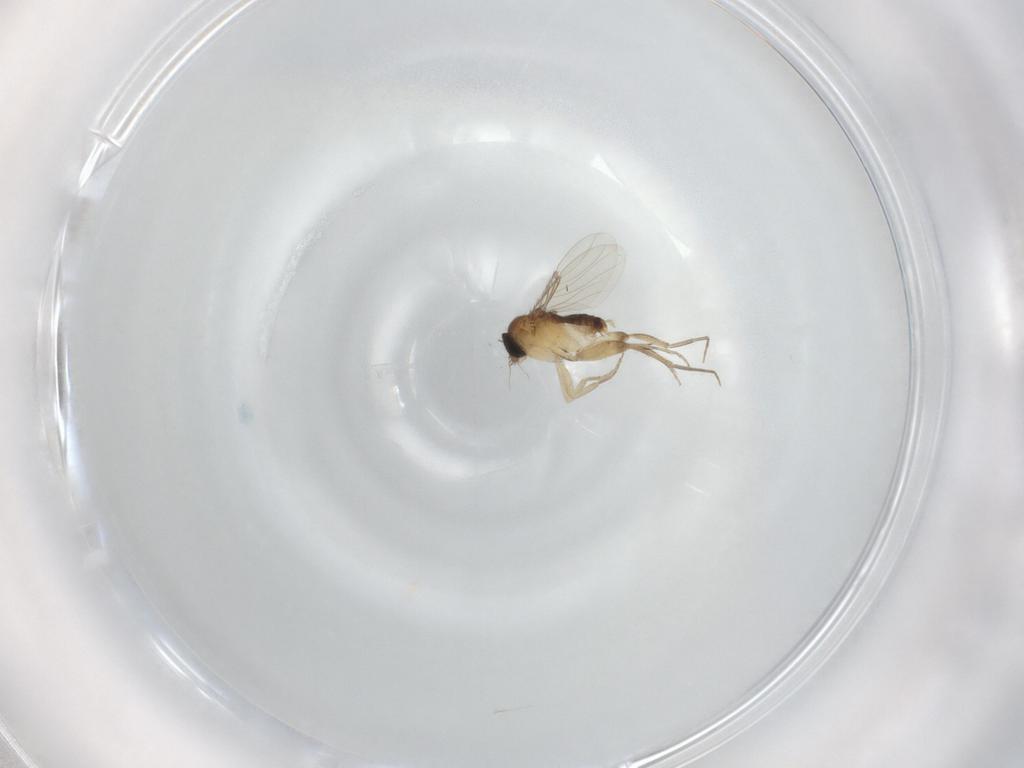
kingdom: Animalia
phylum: Arthropoda
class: Insecta
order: Diptera
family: Phoridae
